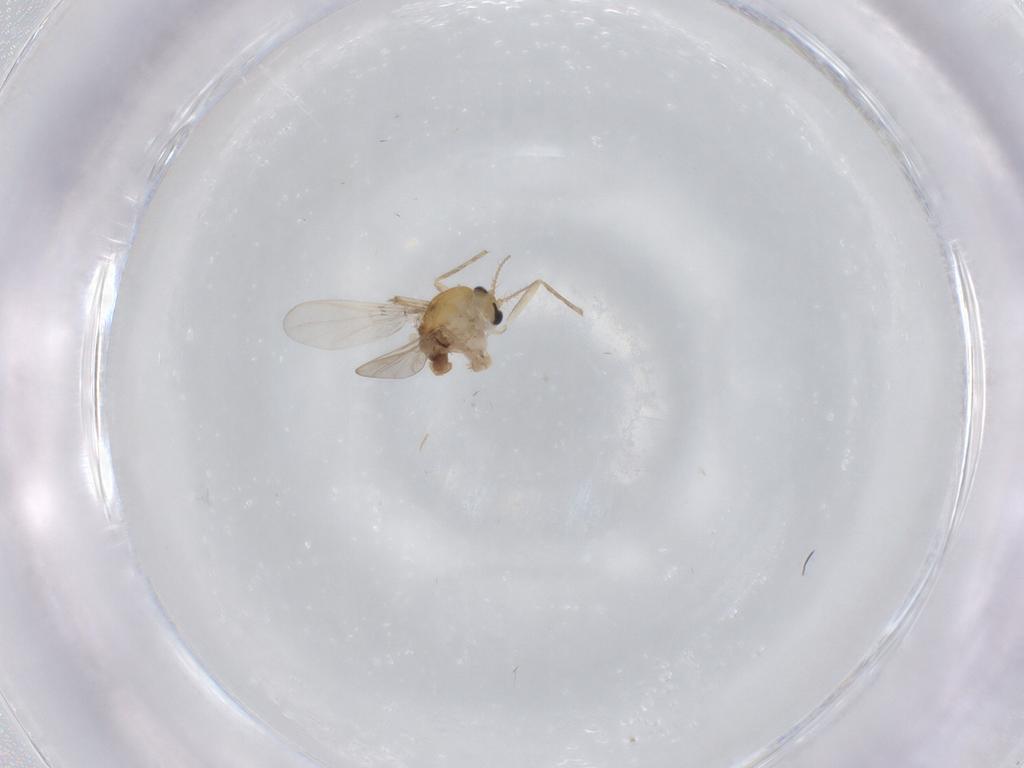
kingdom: Animalia
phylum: Arthropoda
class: Insecta
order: Diptera
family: Chironomidae
